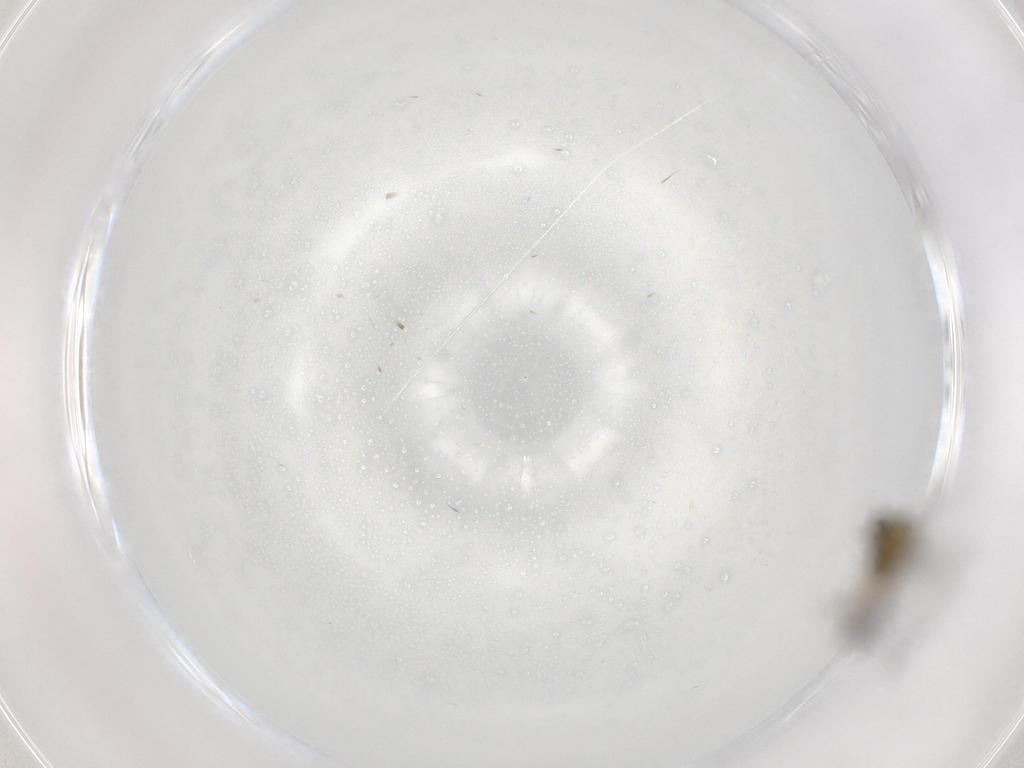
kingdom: Animalia
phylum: Arthropoda
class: Insecta
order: Diptera
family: Chironomidae
